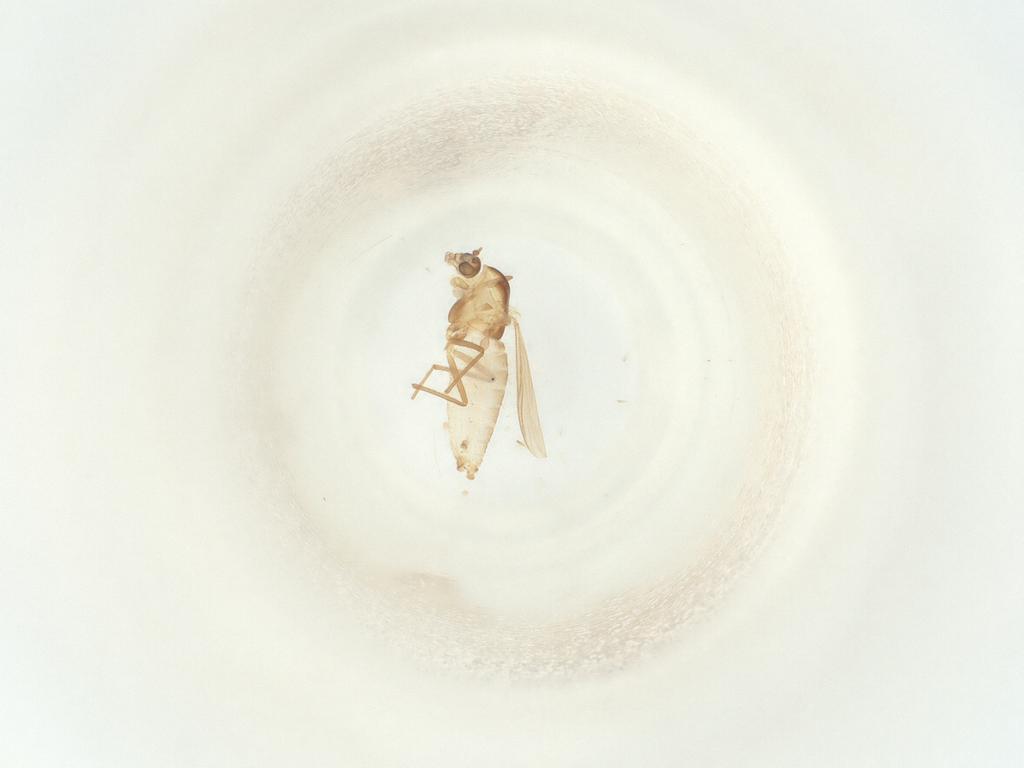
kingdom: Animalia
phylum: Arthropoda
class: Insecta
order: Diptera
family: Chironomidae
